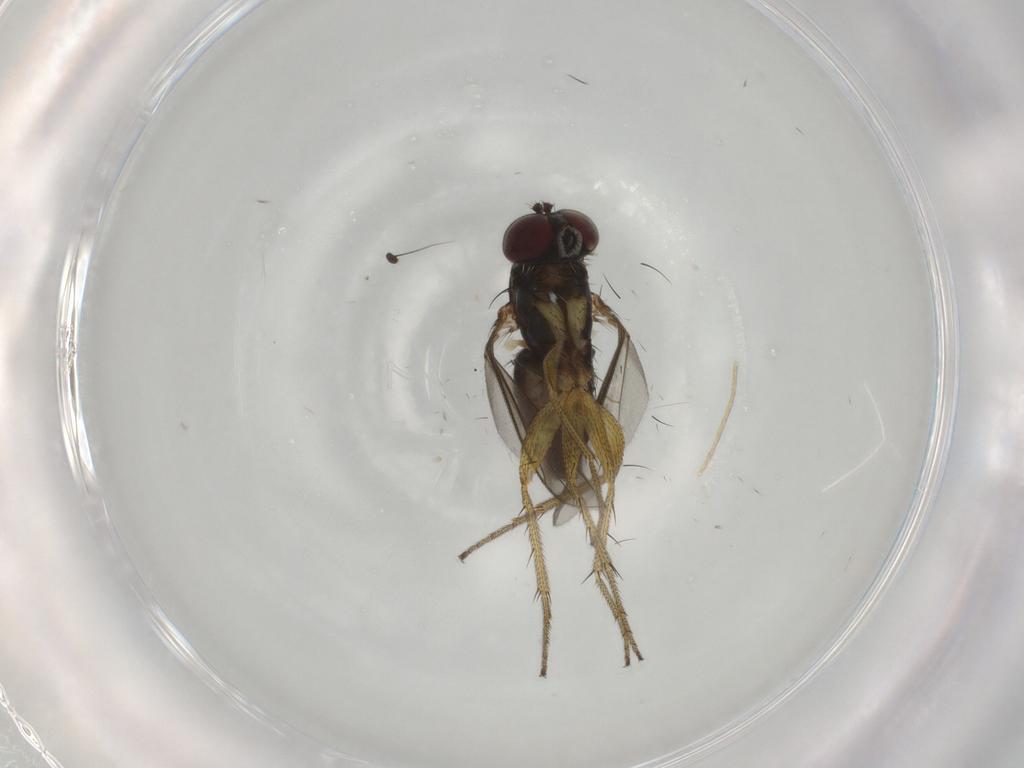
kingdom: Animalia
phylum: Arthropoda
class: Insecta
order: Diptera
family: Dolichopodidae
